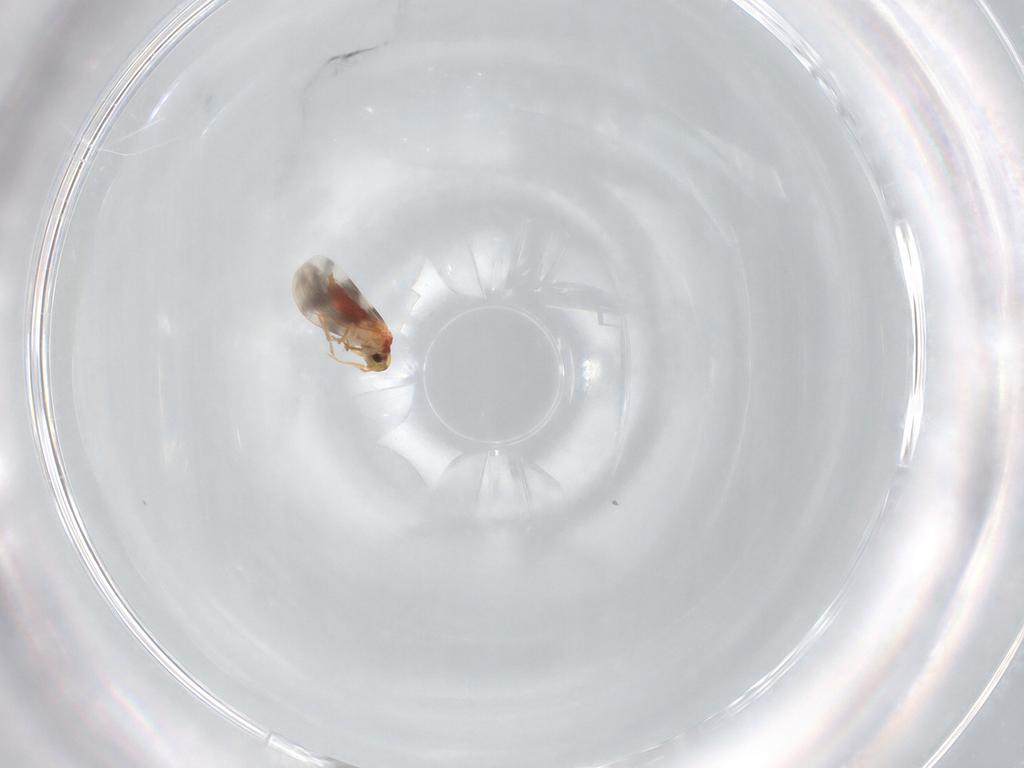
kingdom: Animalia
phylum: Arthropoda
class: Insecta
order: Hemiptera
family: Aleyrodidae
